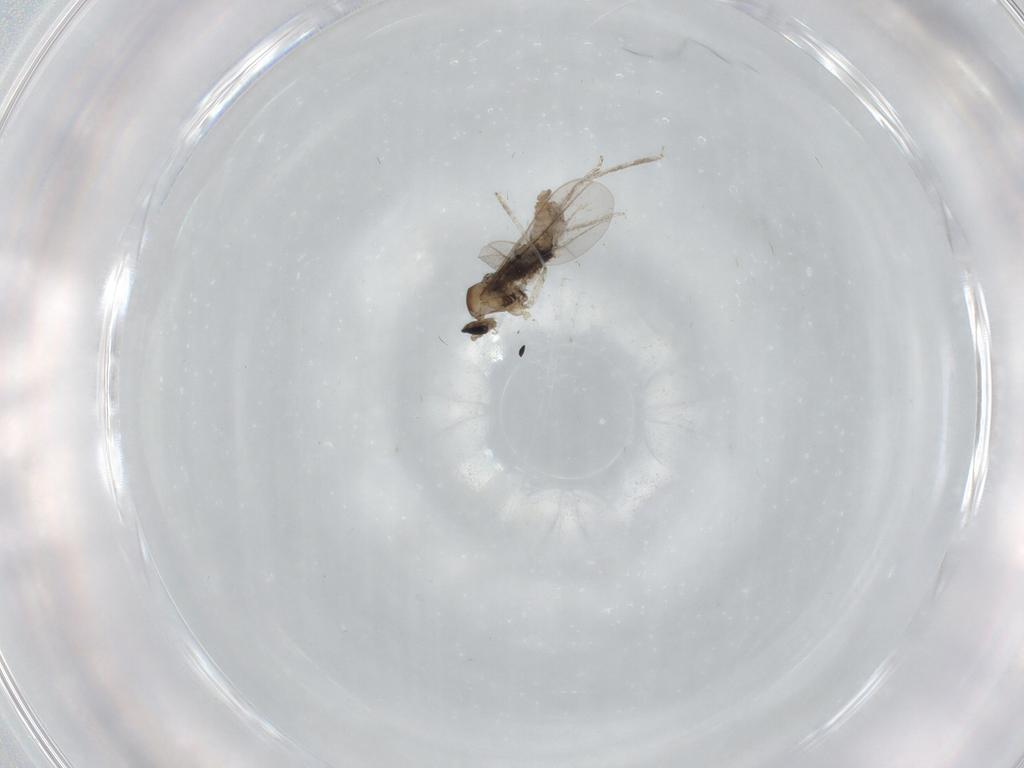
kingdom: Animalia
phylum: Arthropoda
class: Insecta
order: Diptera
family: Cecidomyiidae
